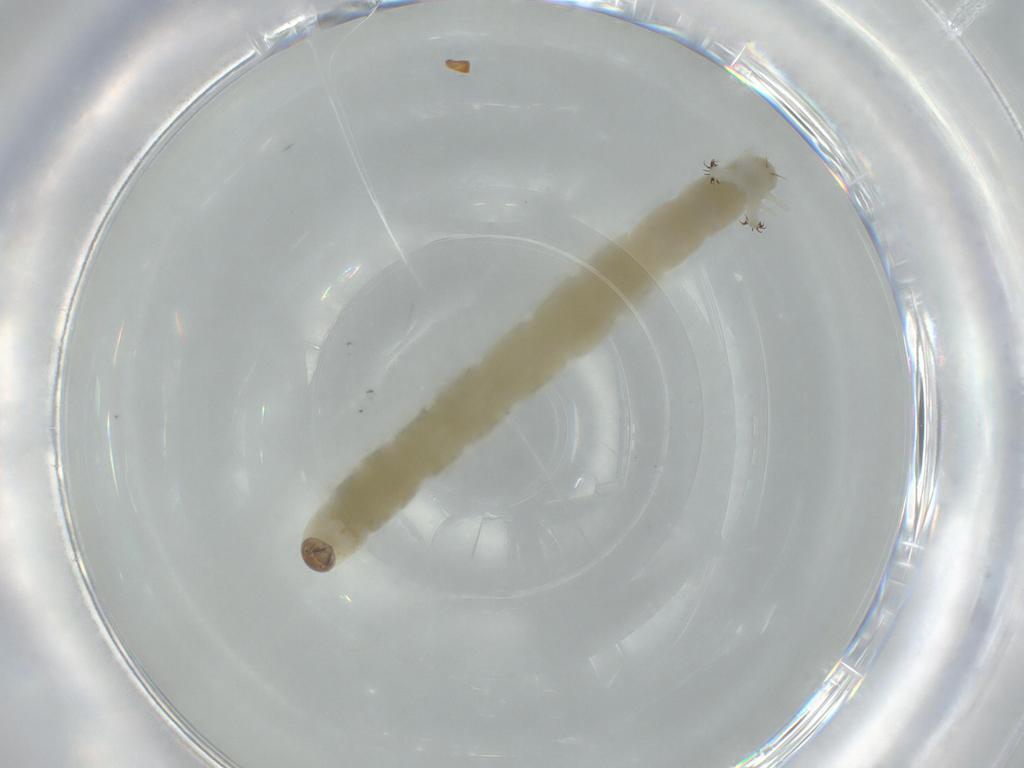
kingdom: Animalia
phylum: Arthropoda
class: Insecta
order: Diptera
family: Chironomidae
